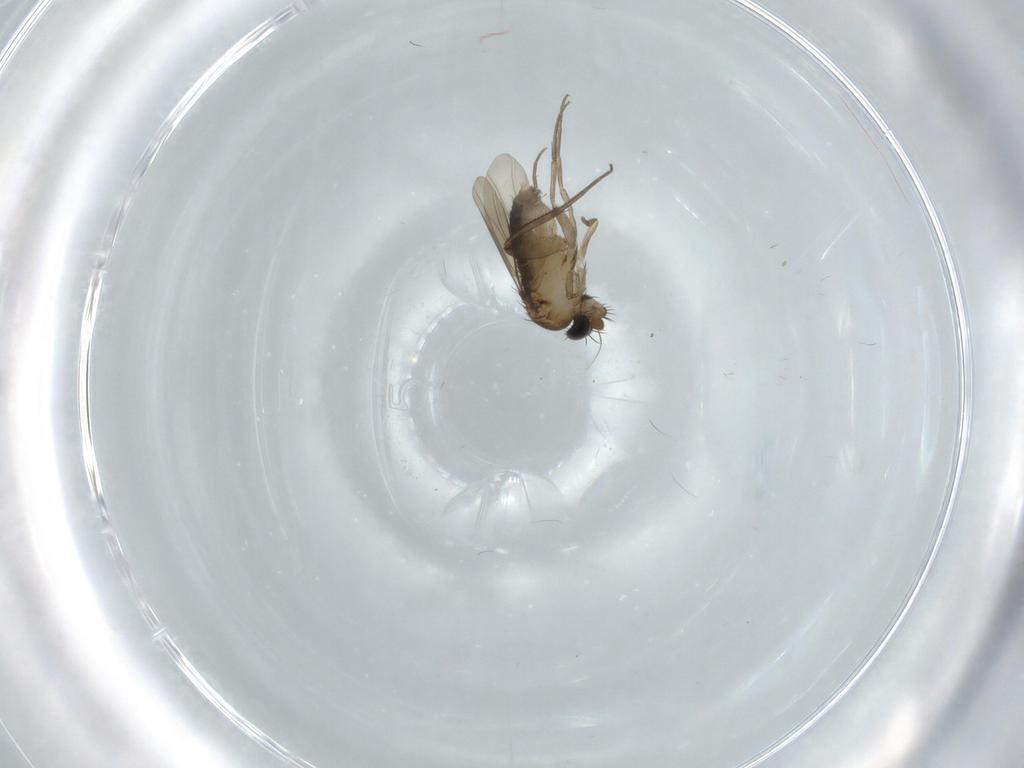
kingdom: Animalia
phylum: Arthropoda
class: Insecta
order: Diptera
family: Phoridae
